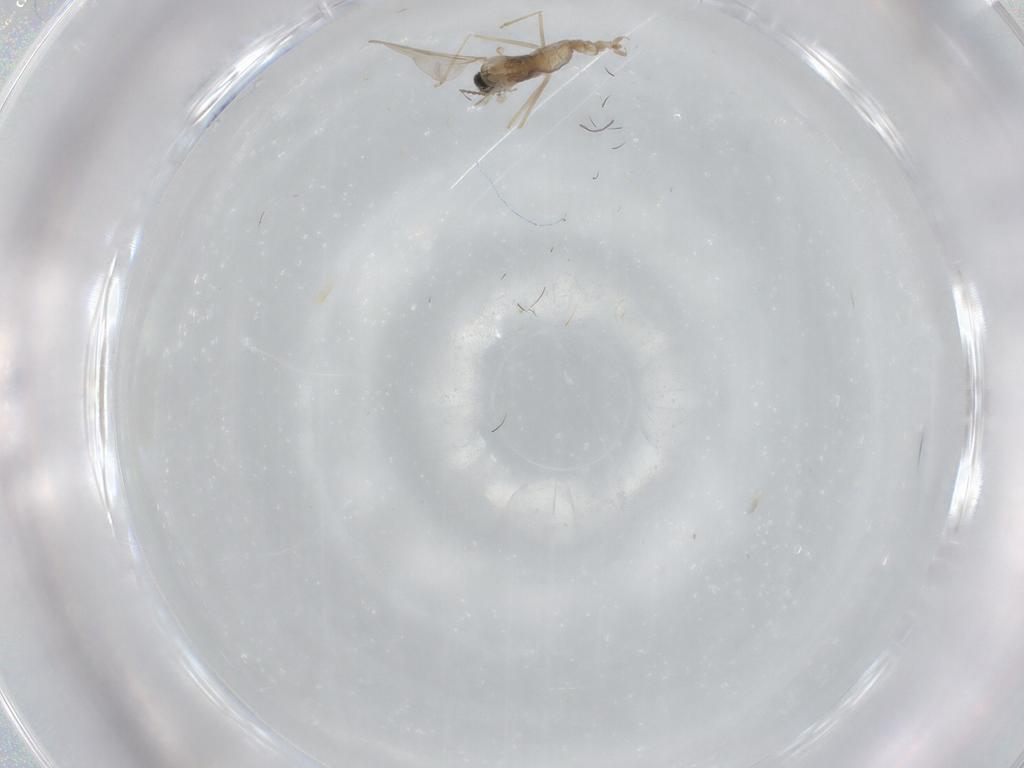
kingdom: Animalia
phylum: Arthropoda
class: Insecta
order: Diptera
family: Cecidomyiidae
